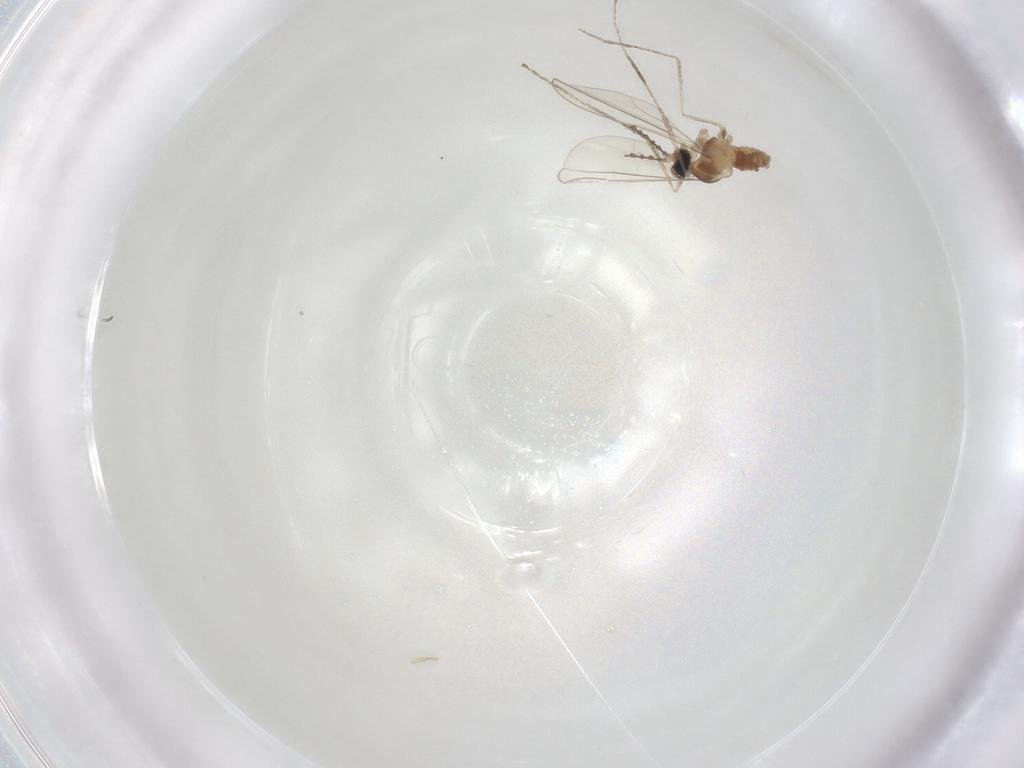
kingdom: Animalia
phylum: Arthropoda
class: Insecta
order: Diptera
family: Cecidomyiidae
